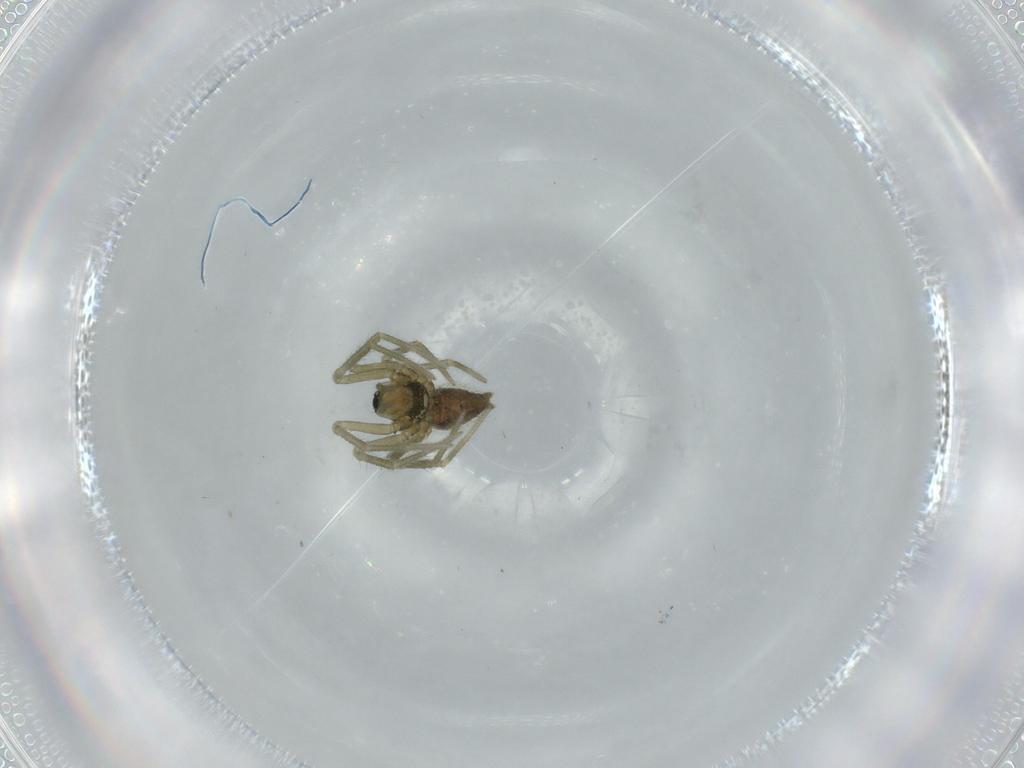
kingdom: Animalia
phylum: Arthropoda
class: Arachnida
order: Araneae
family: Linyphiidae
